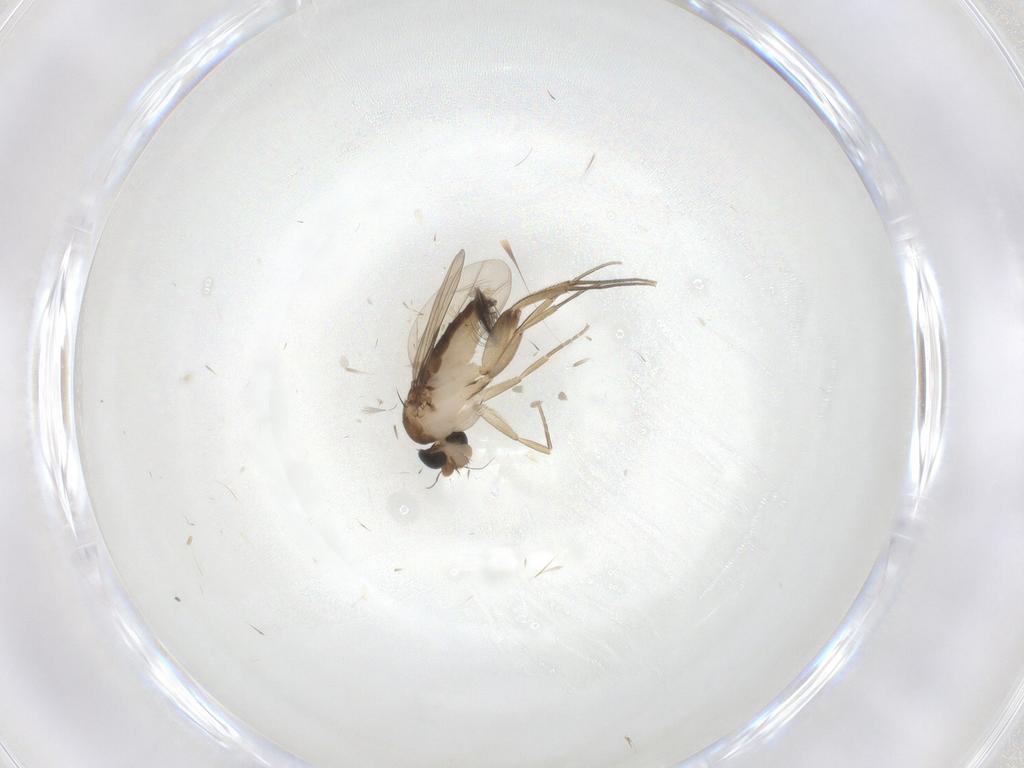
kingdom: Animalia
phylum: Arthropoda
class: Insecta
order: Diptera
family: Phoridae
